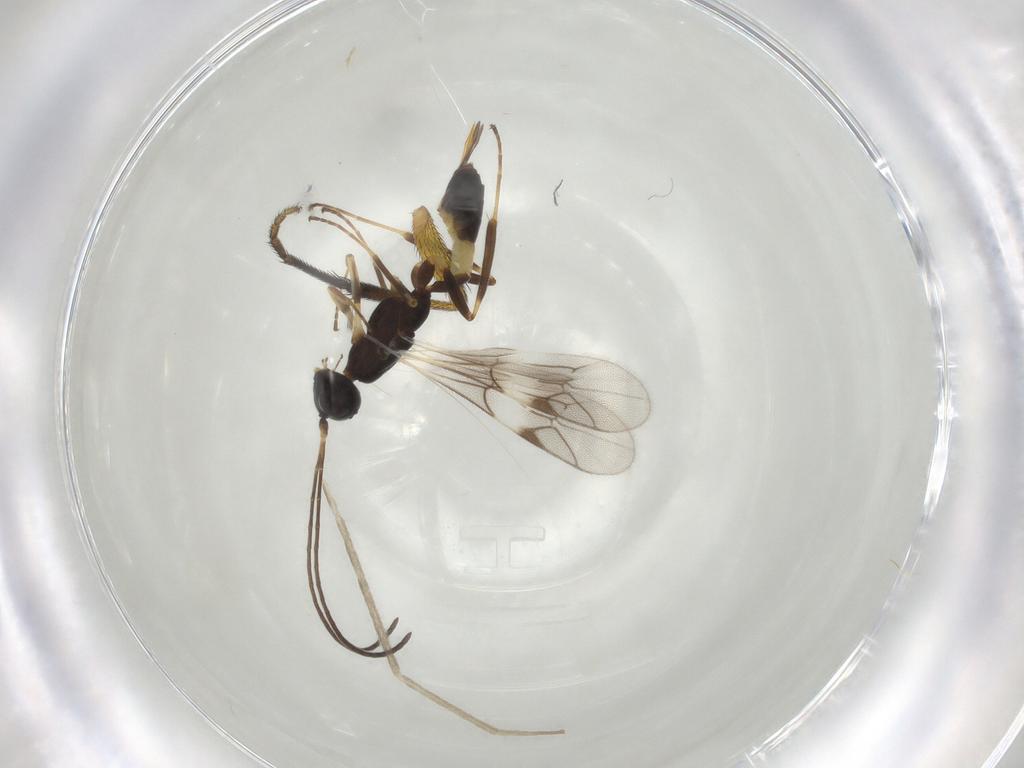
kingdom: Animalia
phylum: Arthropoda
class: Insecta
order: Hymenoptera
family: Ichneumonidae
